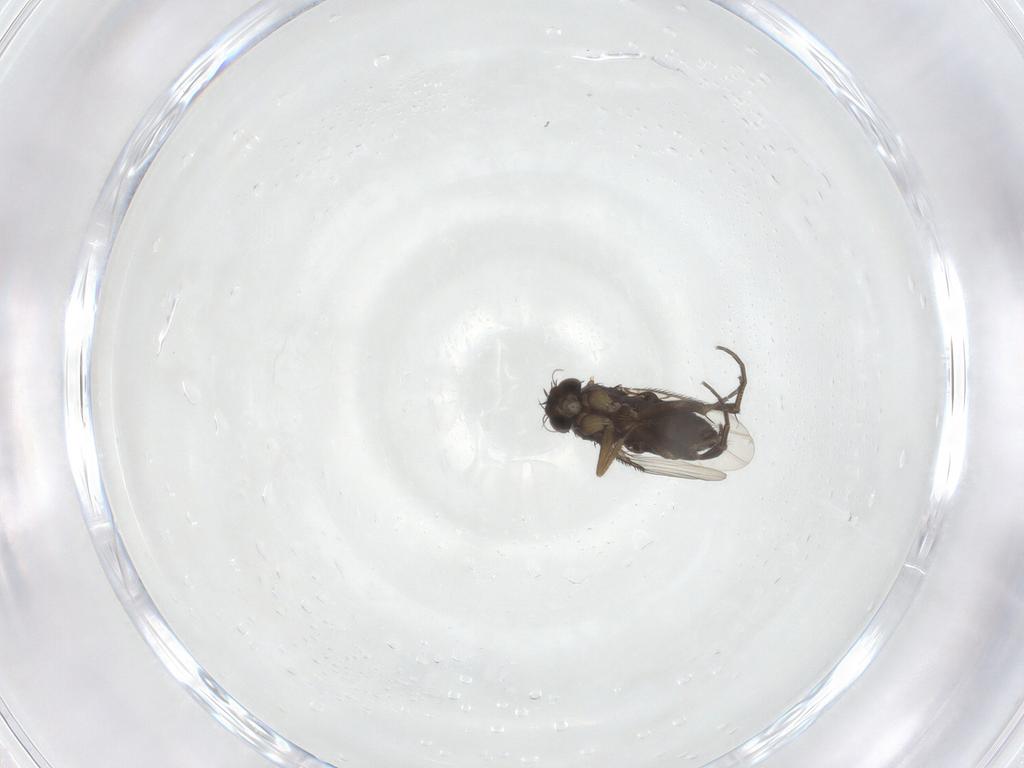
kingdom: Animalia
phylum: Arthropoda
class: Insecta
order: Diptera
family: Phoridae
